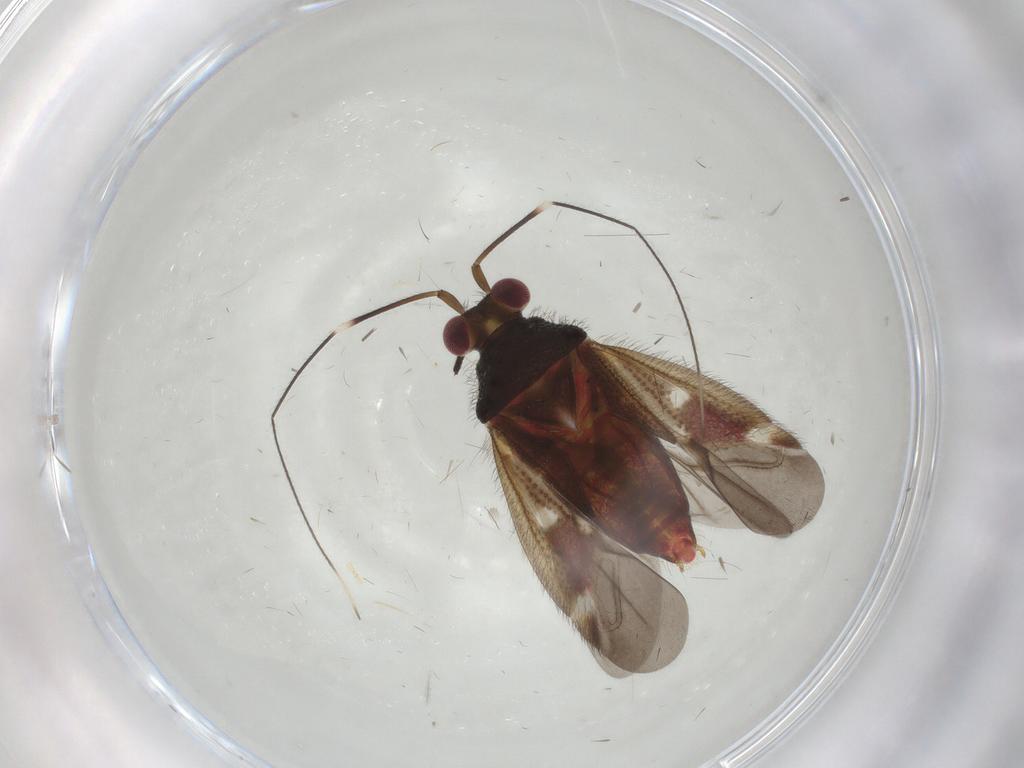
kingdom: Animalia
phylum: Arthropoda
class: Insecta
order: Hemiptera
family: Miridae
